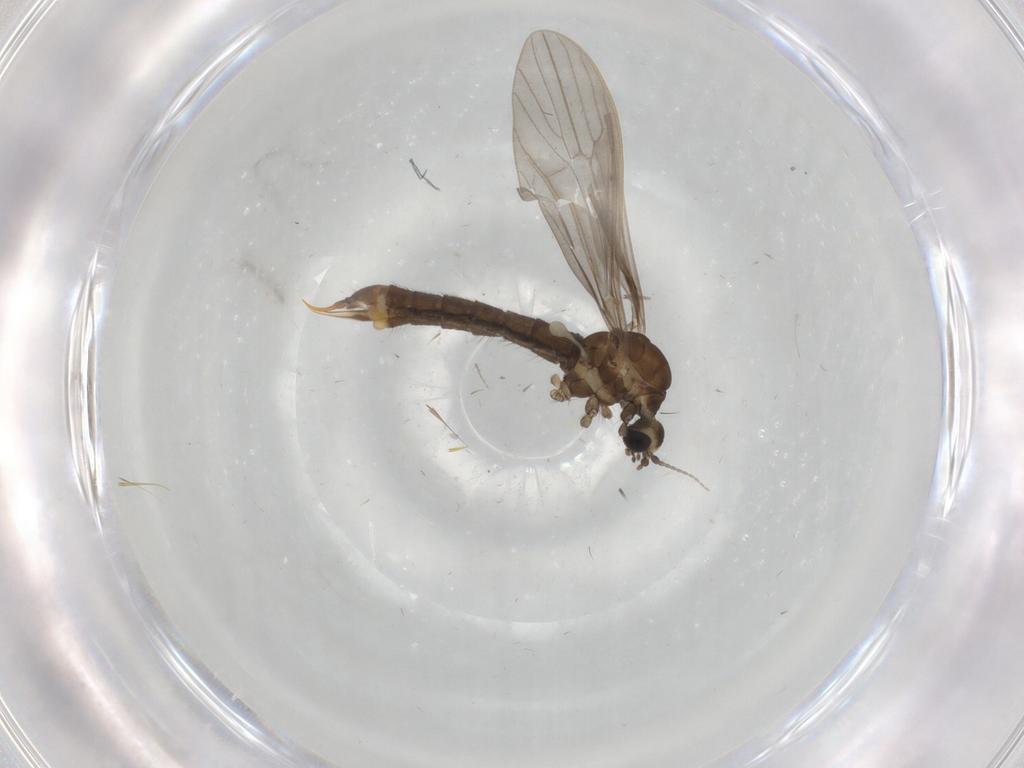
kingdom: Animalia
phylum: Arthropoda
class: Insecta
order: Diptera
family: Limoniidae
